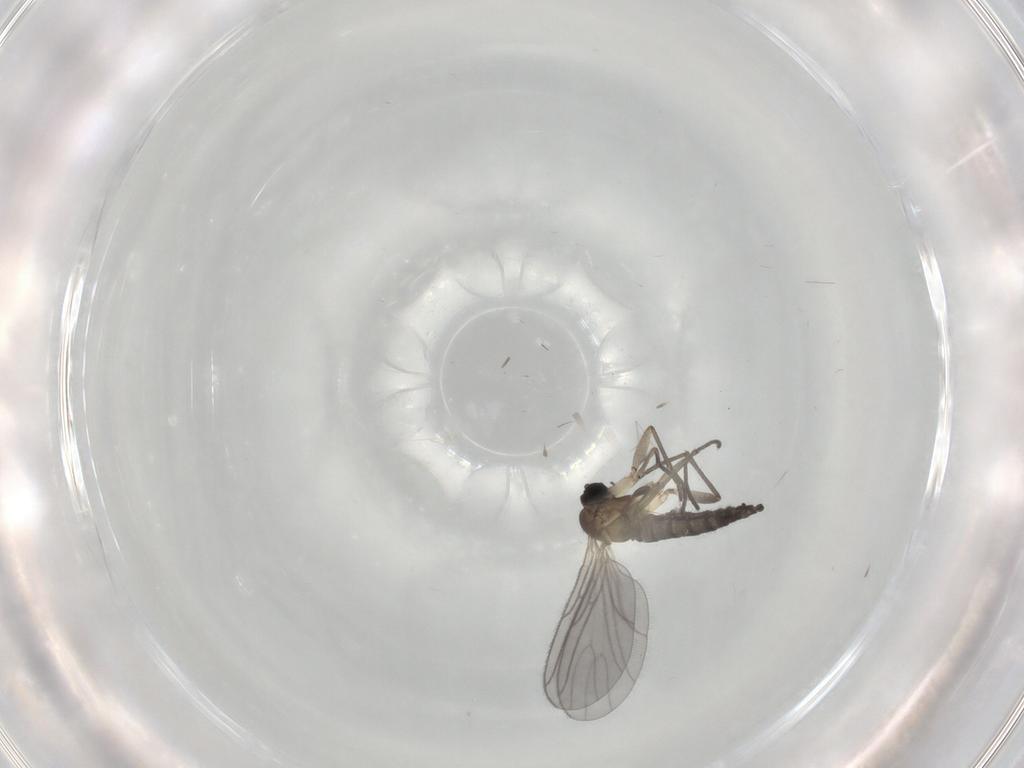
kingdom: Animalia
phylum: Arthropoda
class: Insecta
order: Diptera
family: Sciaridae
